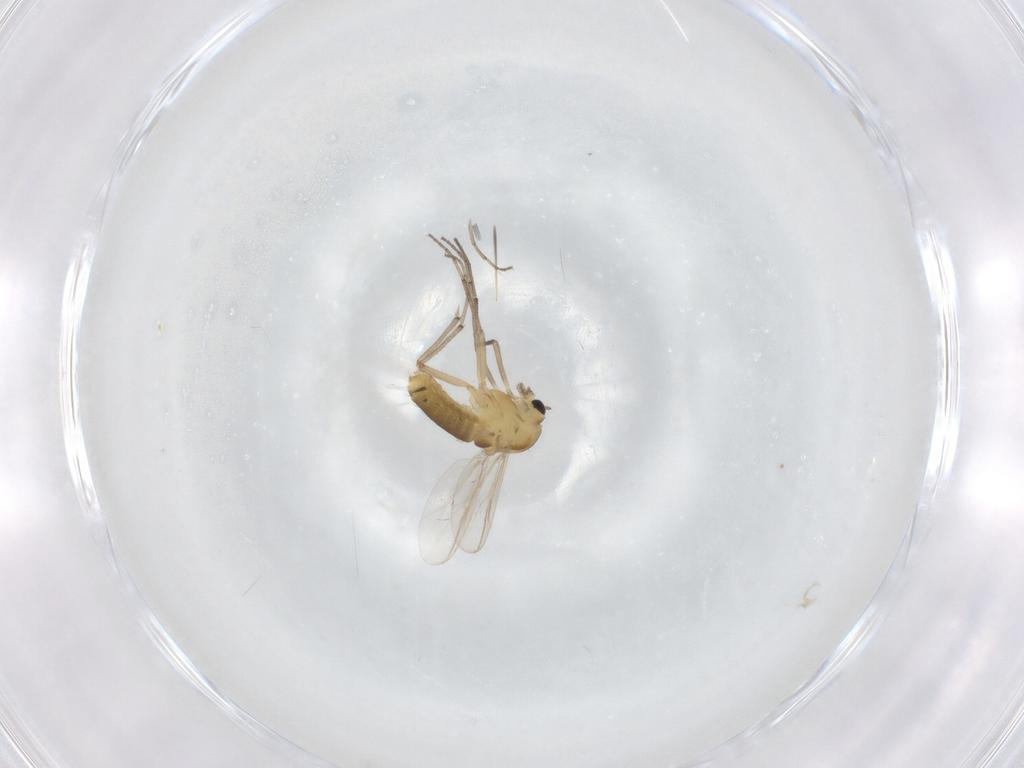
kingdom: Animalia
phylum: Arthropoda
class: Insecta
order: Diptera
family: Chironomidae
